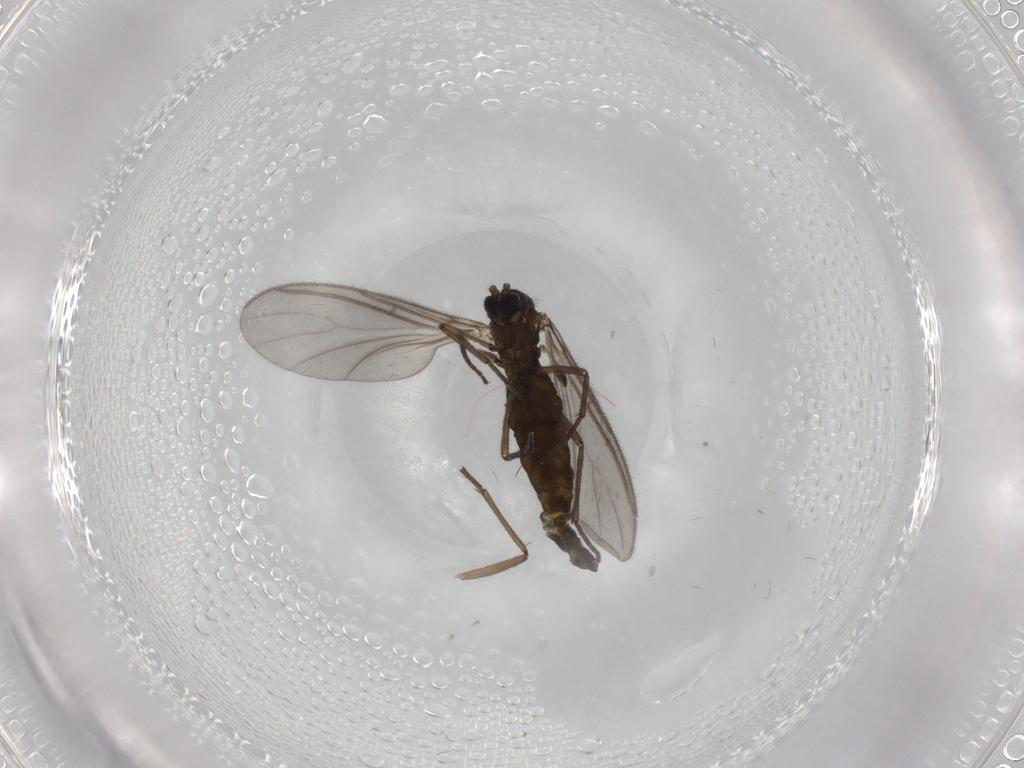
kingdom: Animalia
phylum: Arthropoda
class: Insecta
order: Diptera
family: Sciaridae
